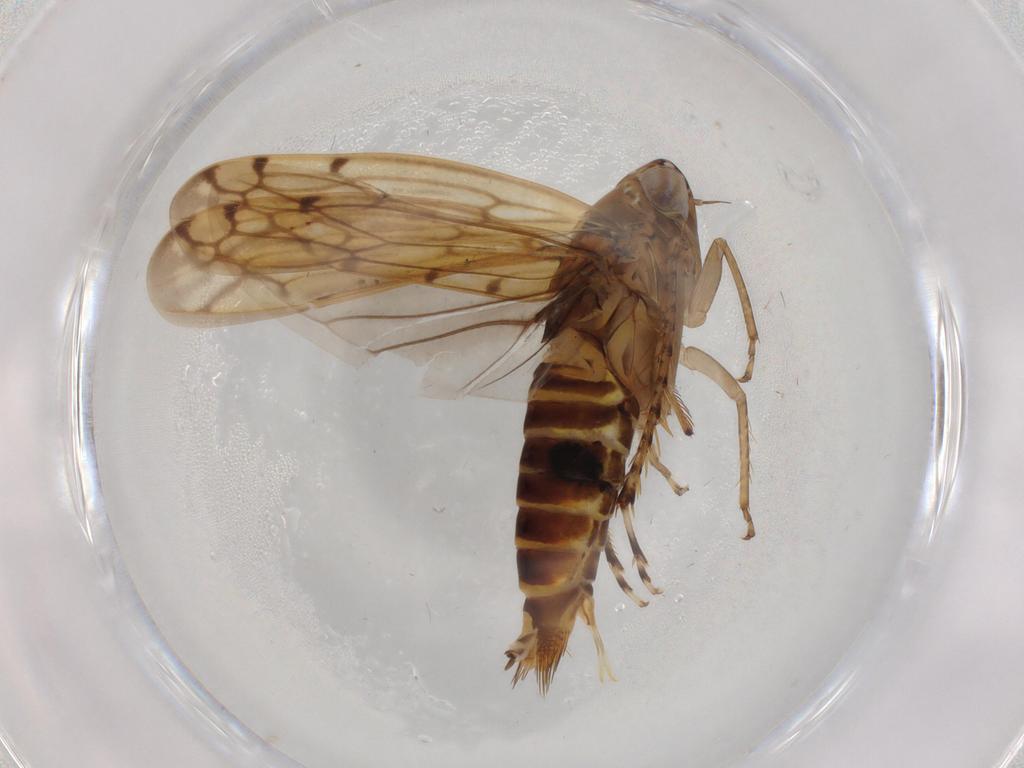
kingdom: Animalia
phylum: Arthropoda
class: Insecta
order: Hemiptera
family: Cicadellidae
